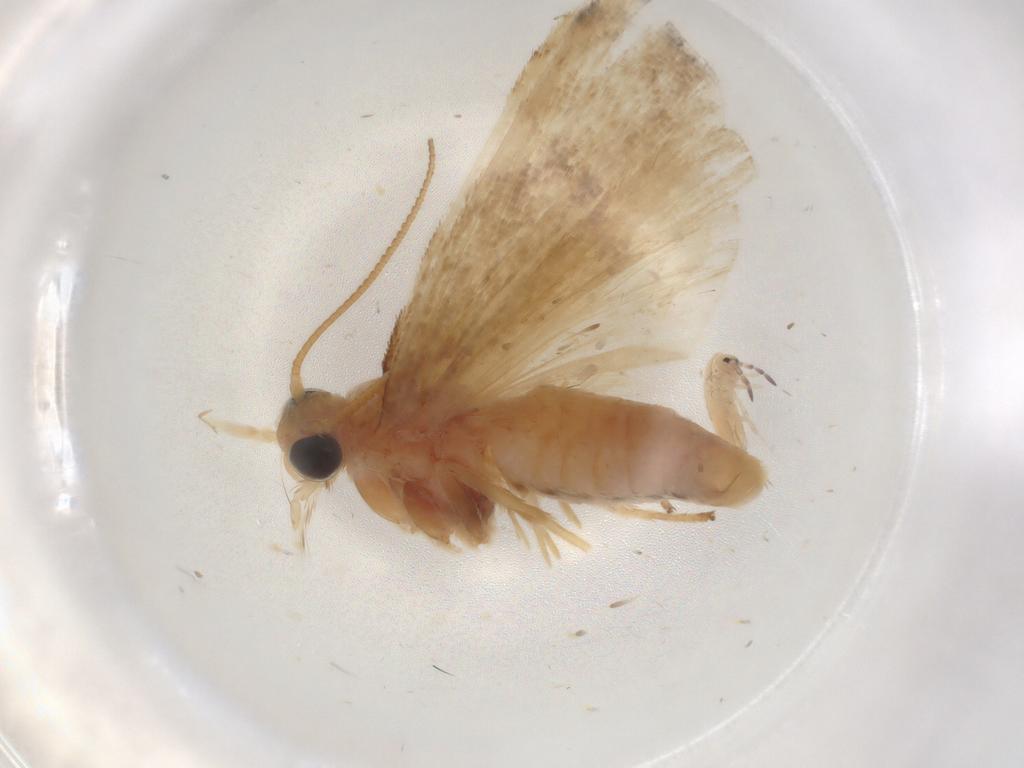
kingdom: Animalia
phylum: Arthropoda
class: Insecta
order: Lepidoptera
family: Pyralidae
